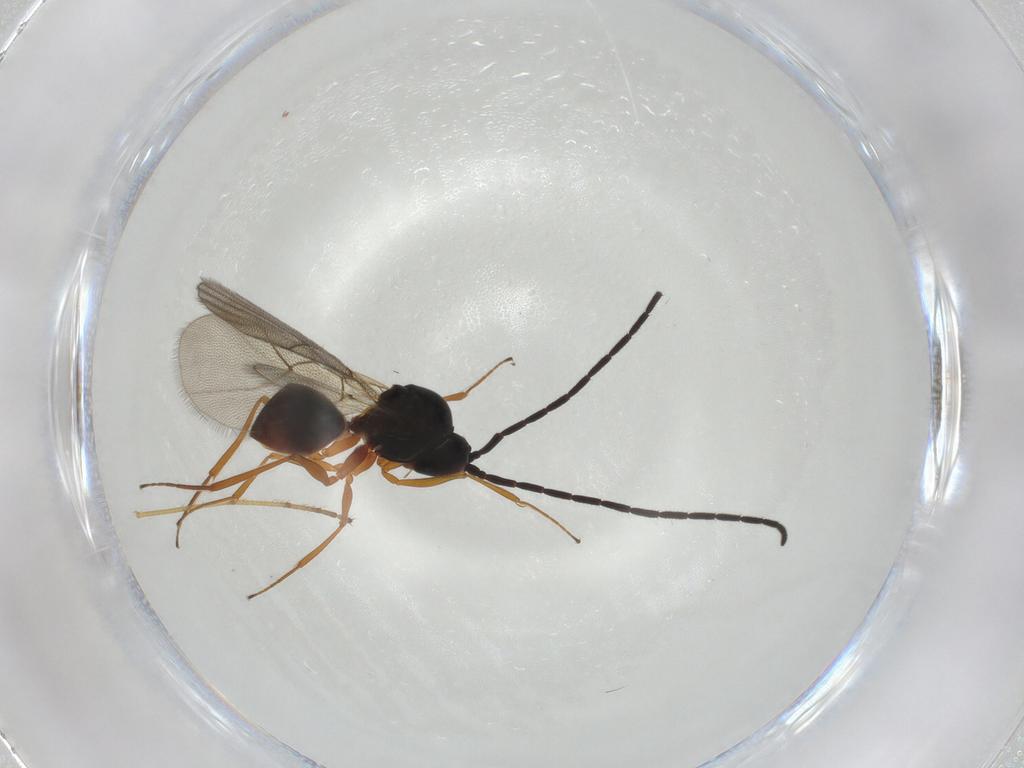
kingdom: Animalia
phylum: Arthropoda
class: Insecta
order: Hymenoptera
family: Figitidae
